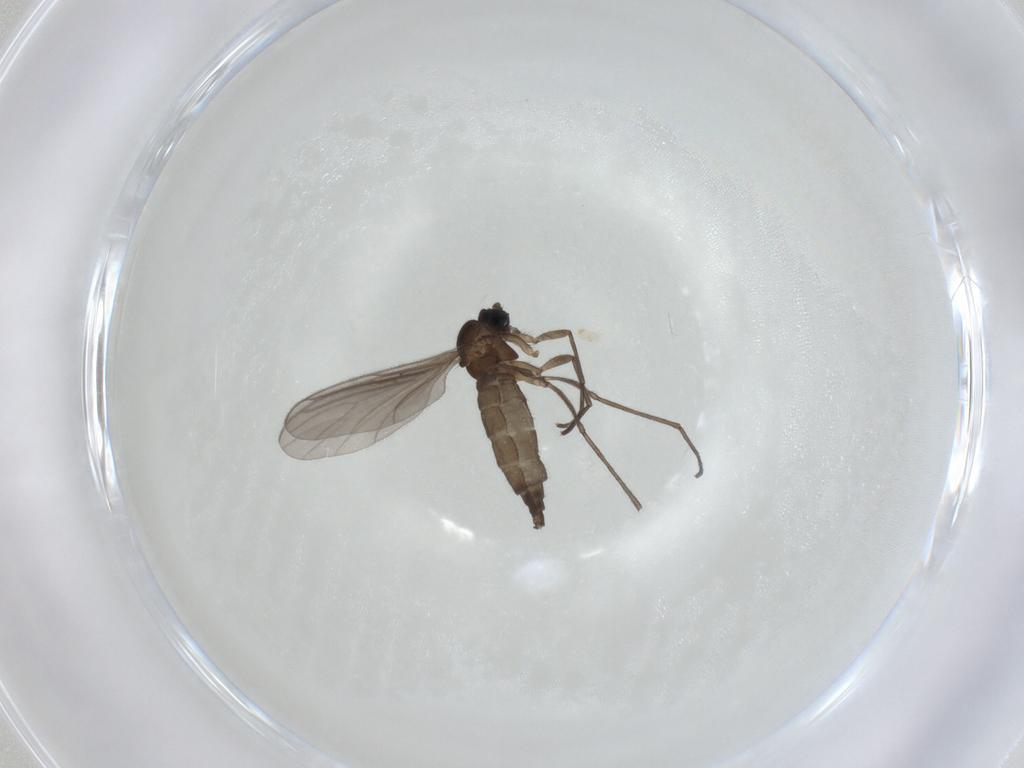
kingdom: Animalia
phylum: Arthropoda
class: Insecta
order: Diptera
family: Sciaridae
